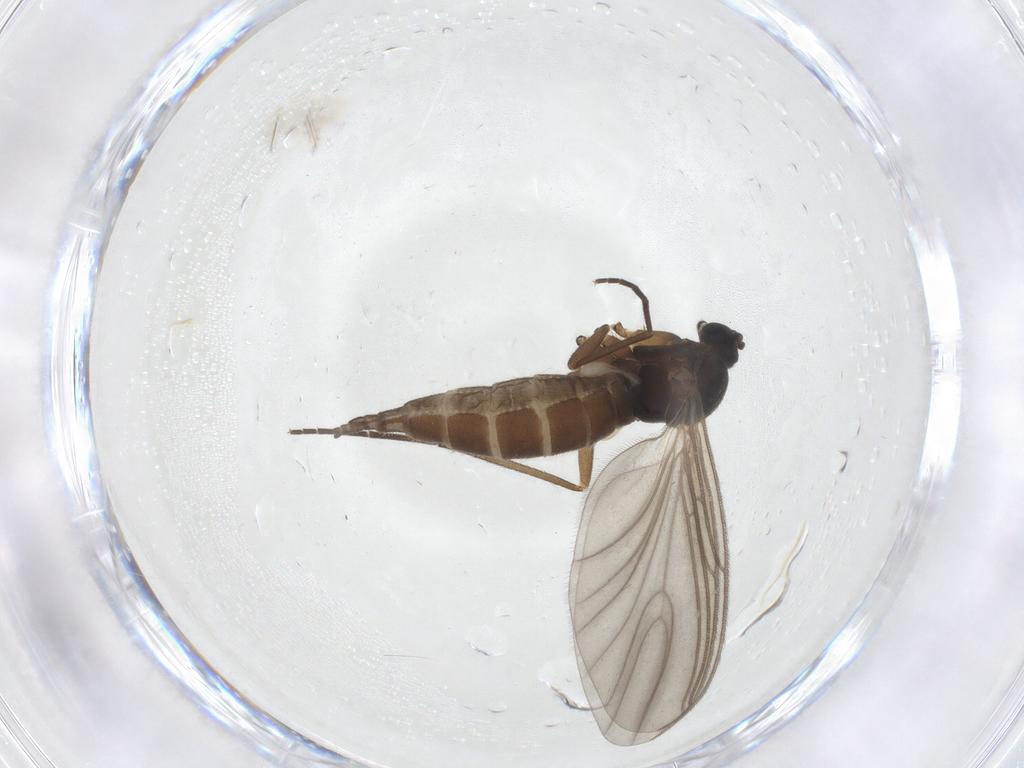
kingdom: Animalia
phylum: Arthropoda
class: Insecta
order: Diptera
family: Sciaridae
